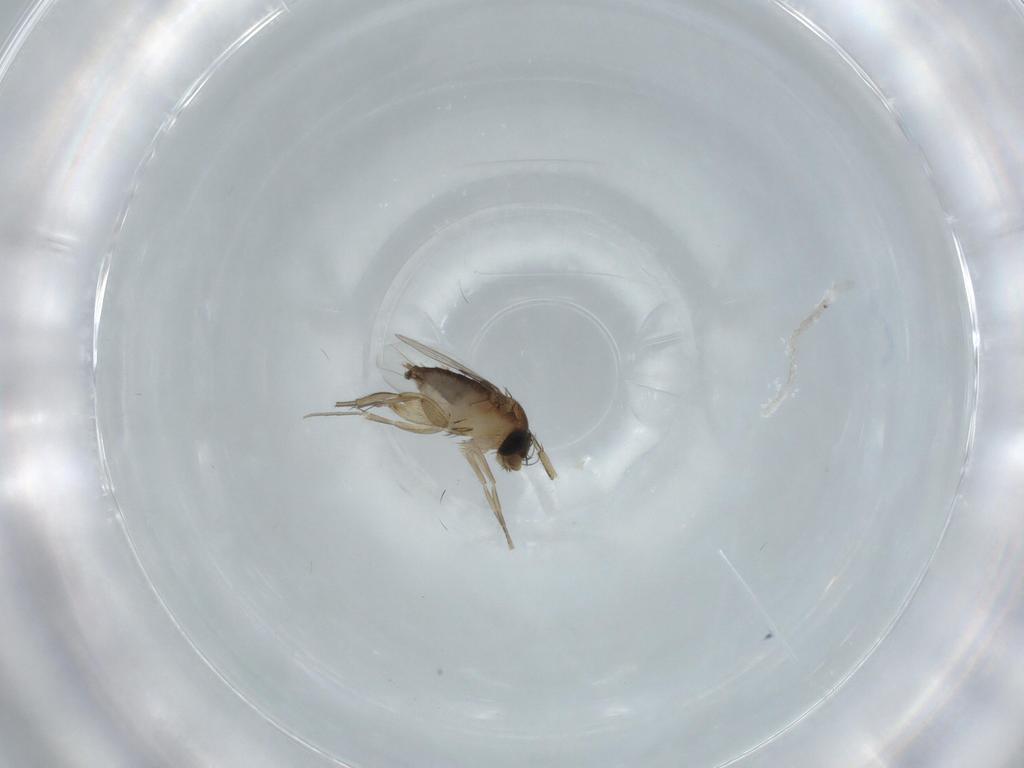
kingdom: Animalia
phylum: Arthropoda
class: Insecta
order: Diptera
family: Phoridae
